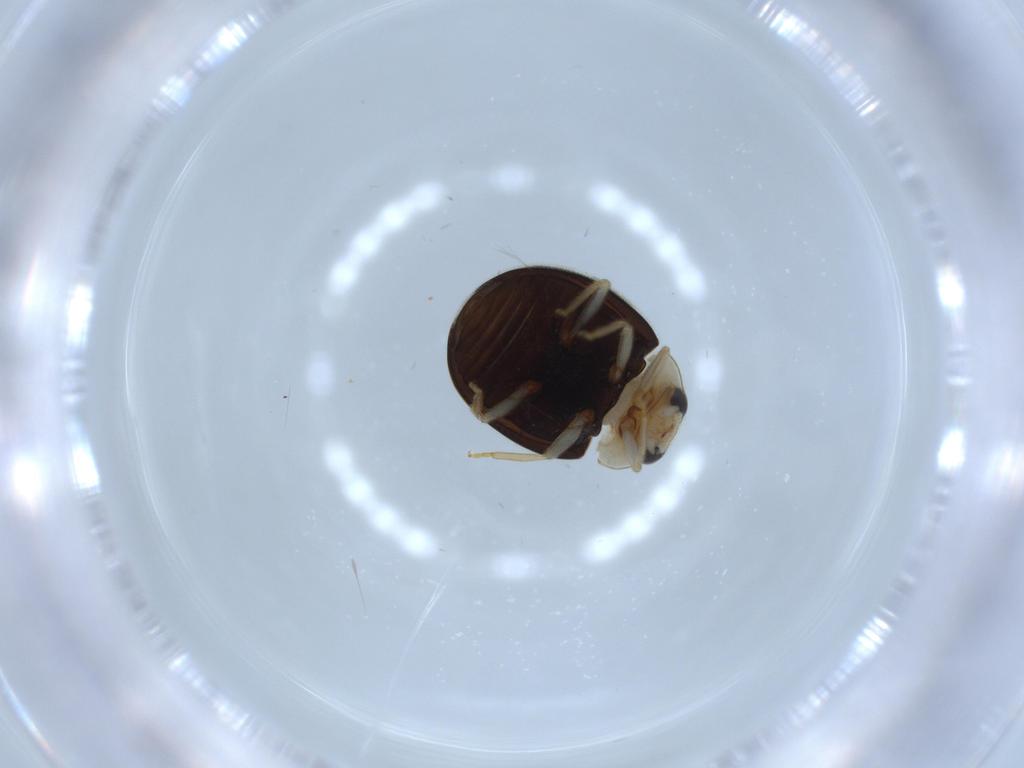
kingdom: Animalia
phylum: Arthropoda
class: Insecta
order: Coleoptera
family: Coccinellidae
